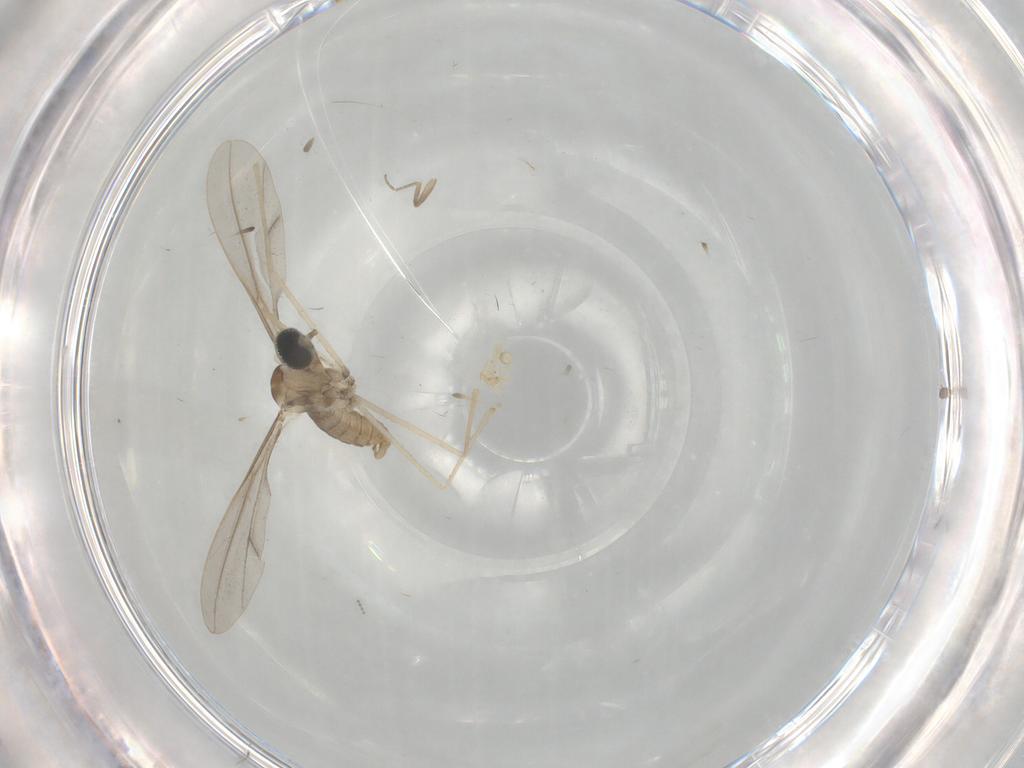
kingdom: Animalia
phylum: Arthropoda
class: Insecta
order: Diptera
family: Cecidomyiidae
